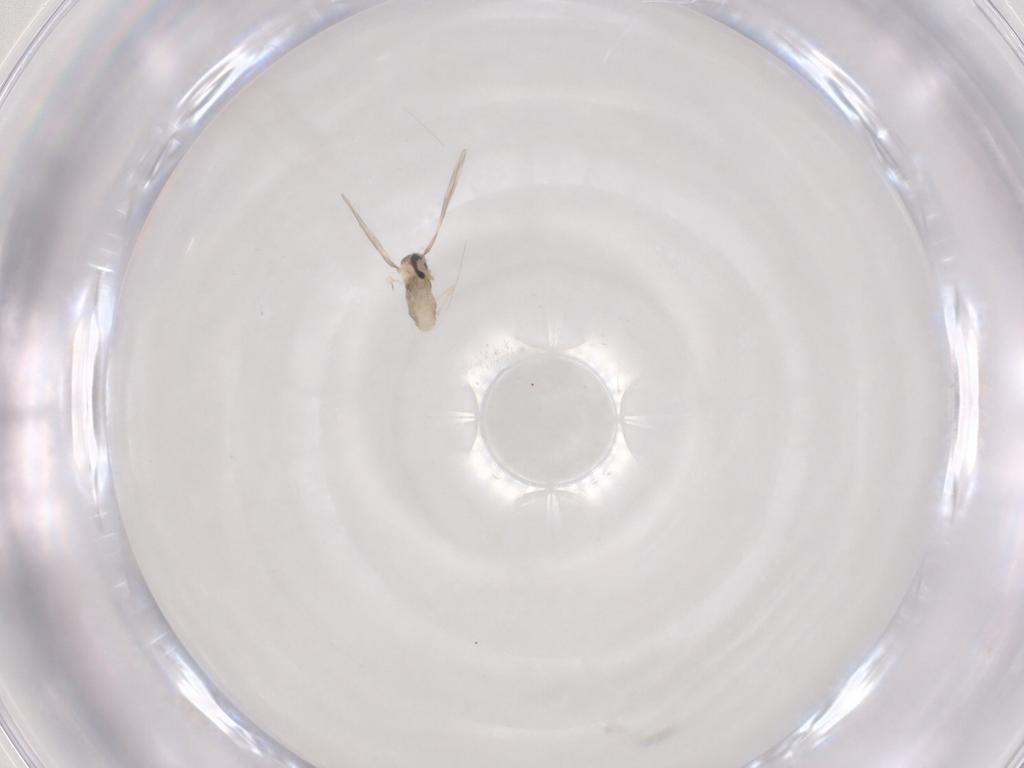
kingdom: Animalia
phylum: Arthropoda
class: Insecta
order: Diptera
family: Cecidomyiidae
